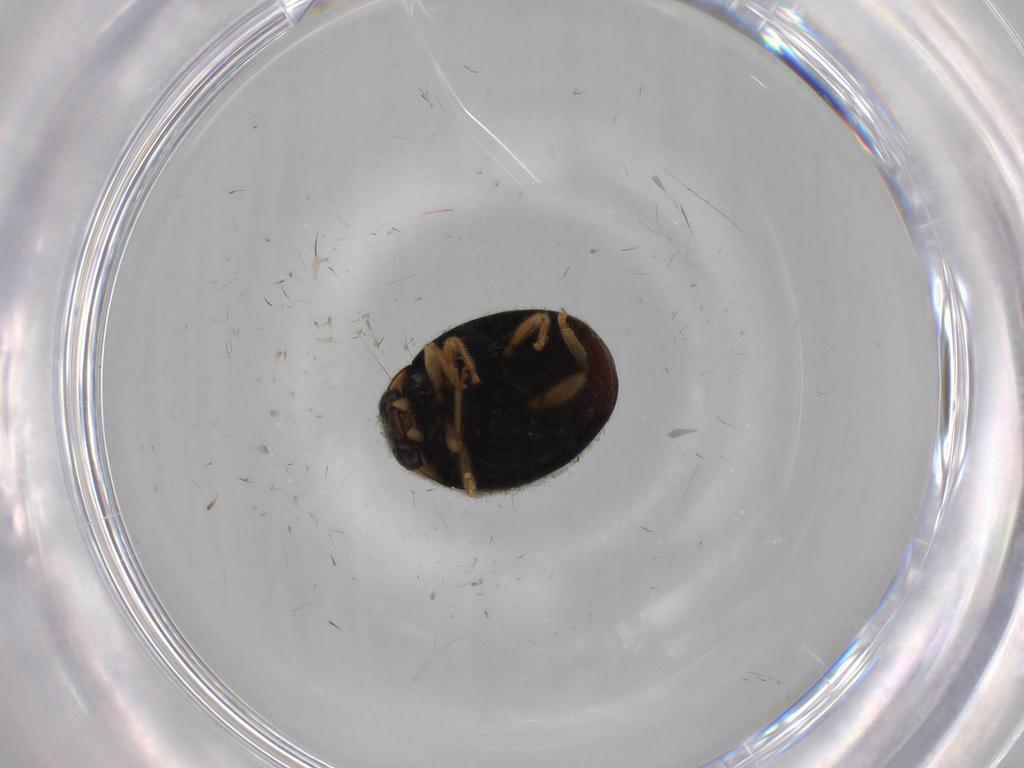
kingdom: Animalia
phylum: Arthropoda
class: Insecta
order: Coleoptera
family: Coccinellidae
